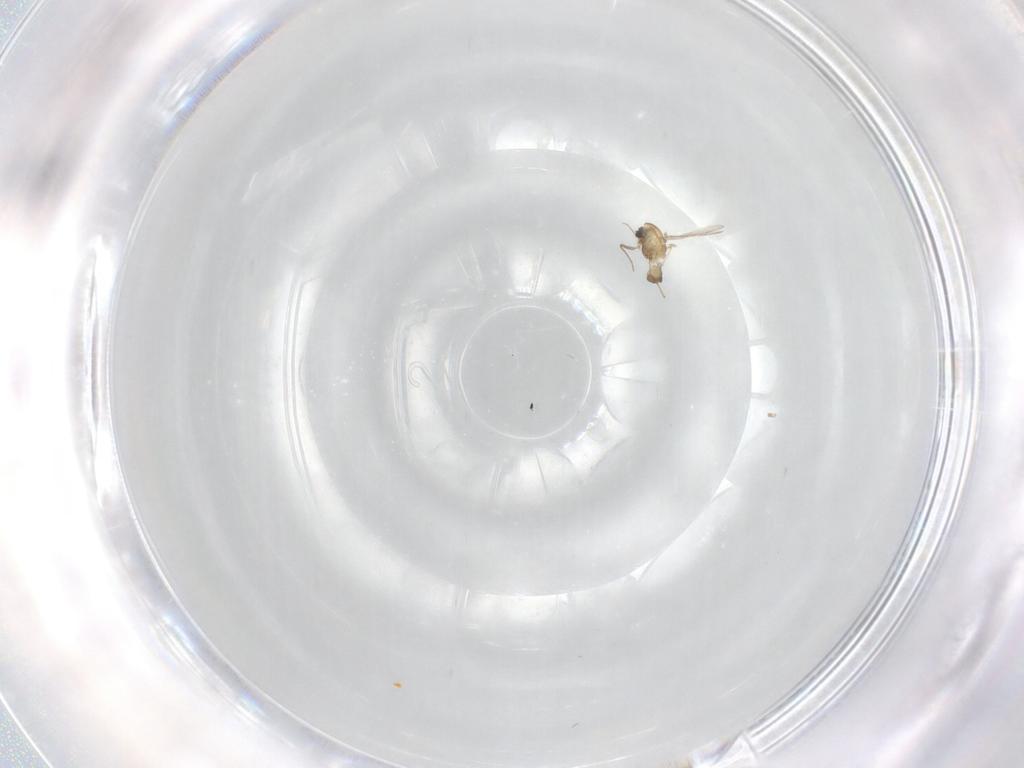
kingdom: Animalia
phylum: Arthropoda
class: Insecta
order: Diptera
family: Chironomidae
